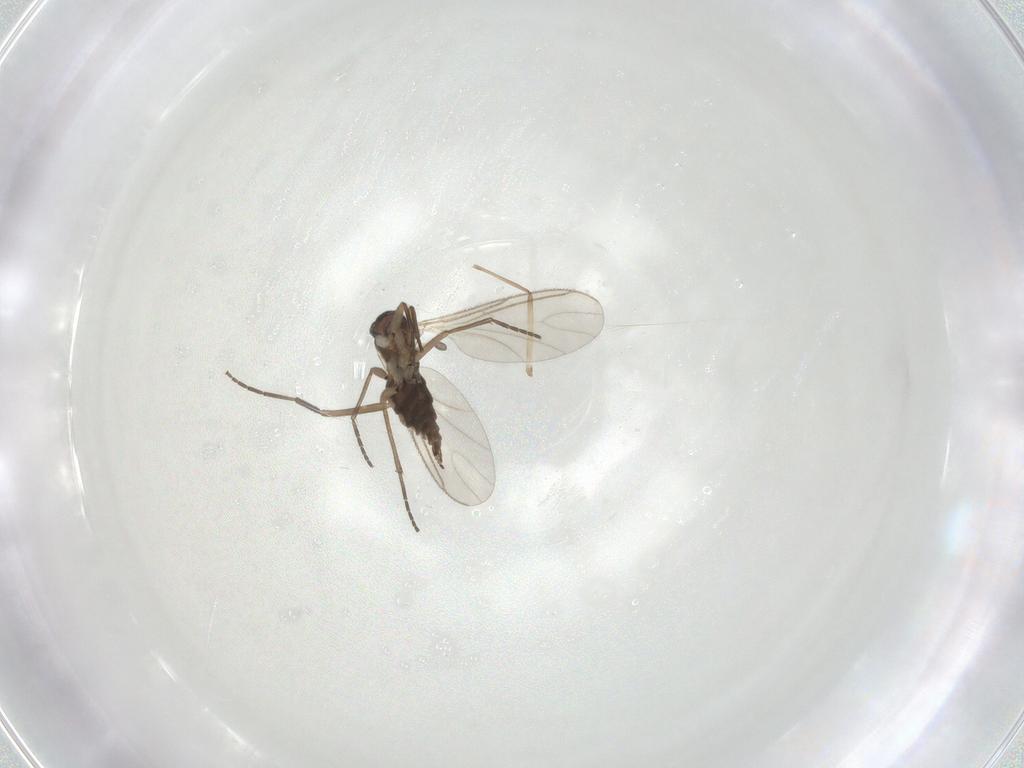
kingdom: Animalia
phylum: Arthropoda
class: Insecta
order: Diptera
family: Sciaridae
